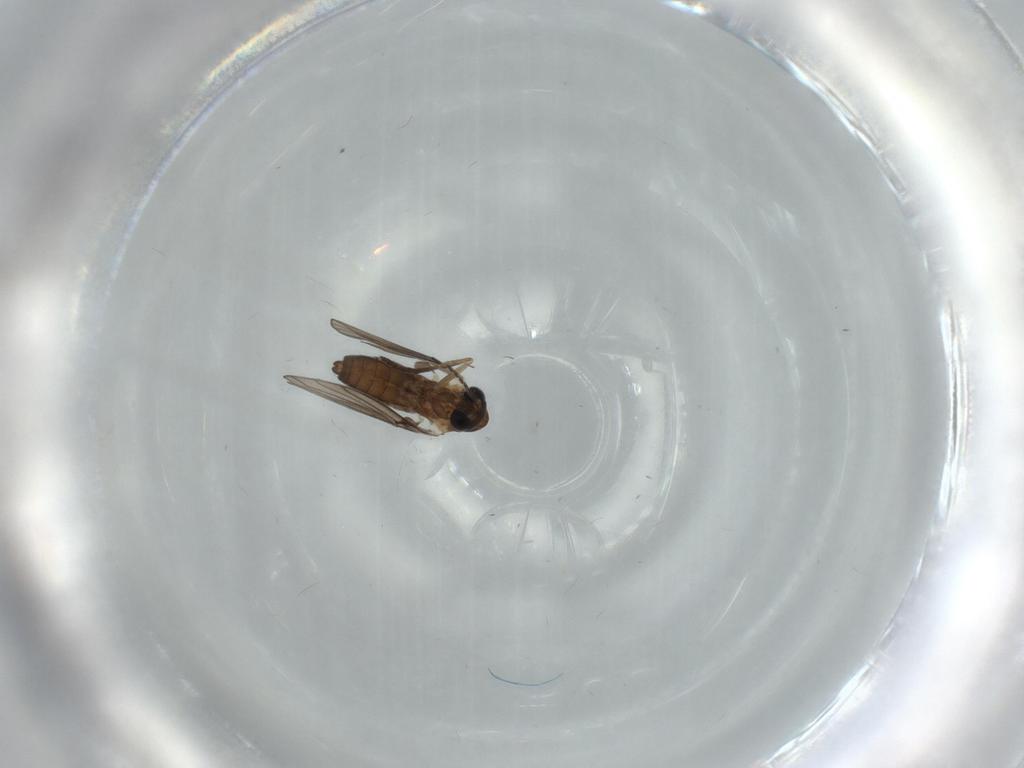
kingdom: Animalia
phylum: Arthropoda
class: Insecta
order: Diptera
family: Psychodidae
